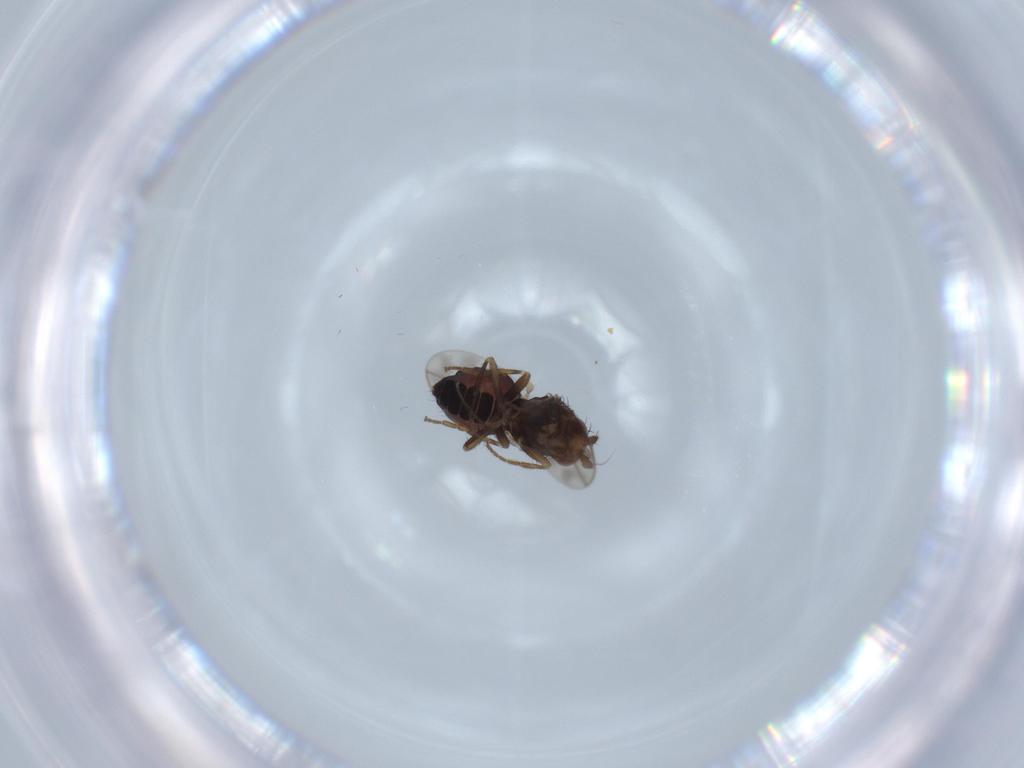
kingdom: Animalia
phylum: Arthropoda
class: Insecta
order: Diptera
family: Sphaeroceridae
